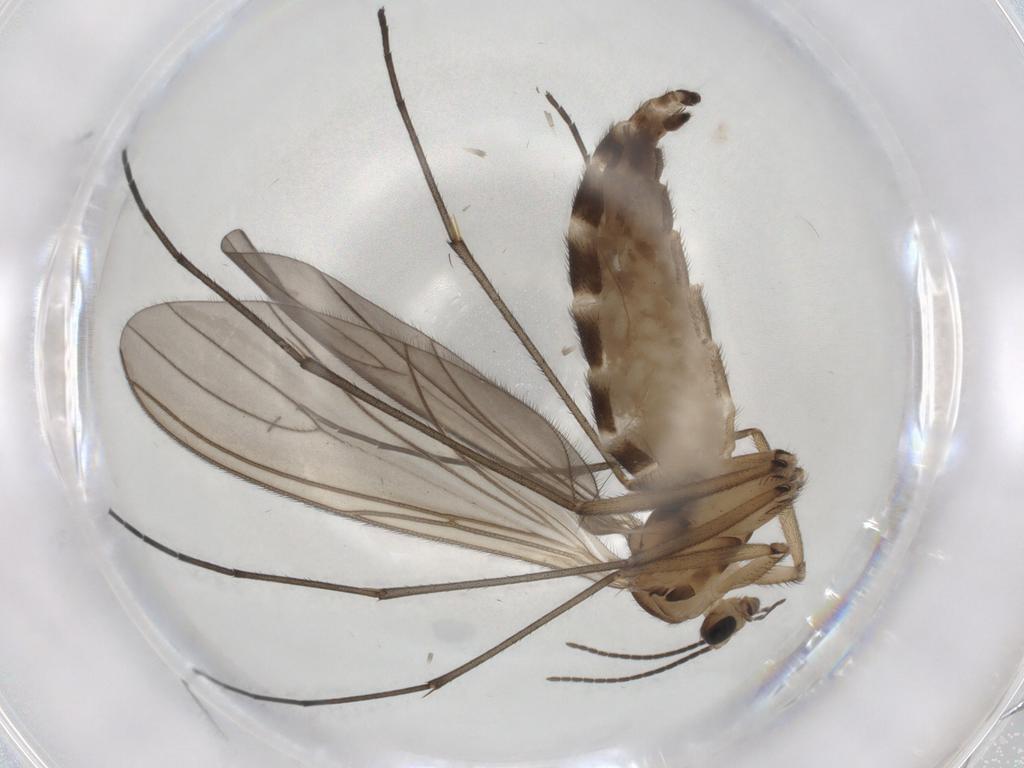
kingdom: Animalia
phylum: Arthropoda
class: Insecta
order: Diptera
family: Sciaridae
